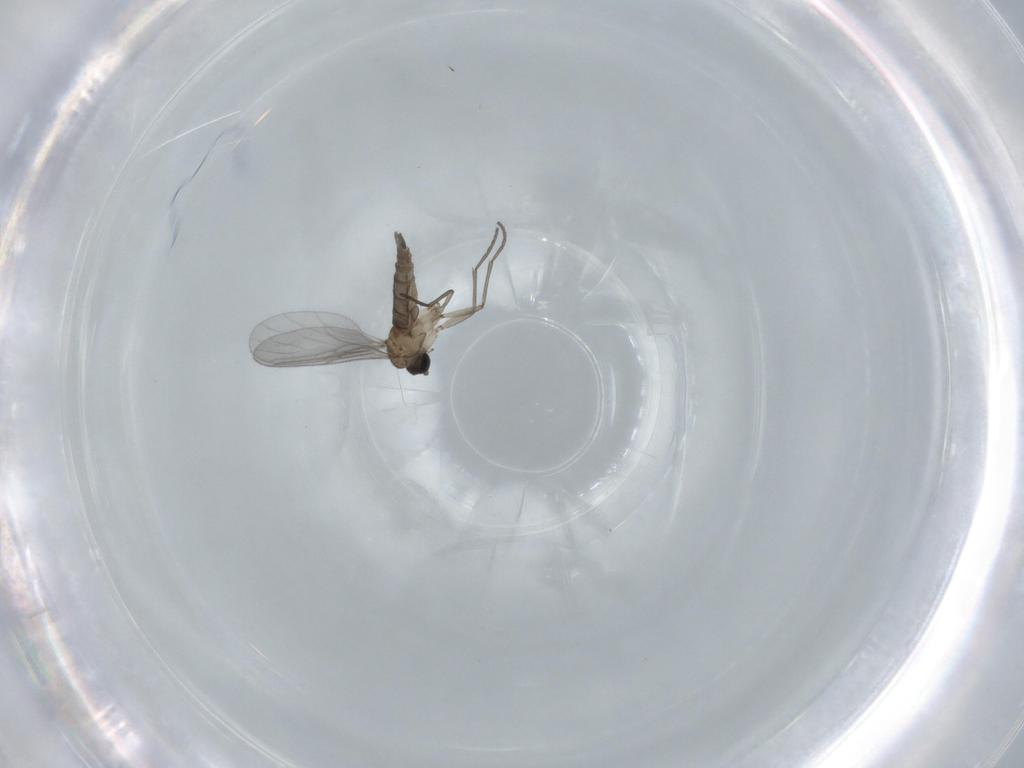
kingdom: Animalia
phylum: Arthropoda
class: Insecta
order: Diptera
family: Sciaridae
